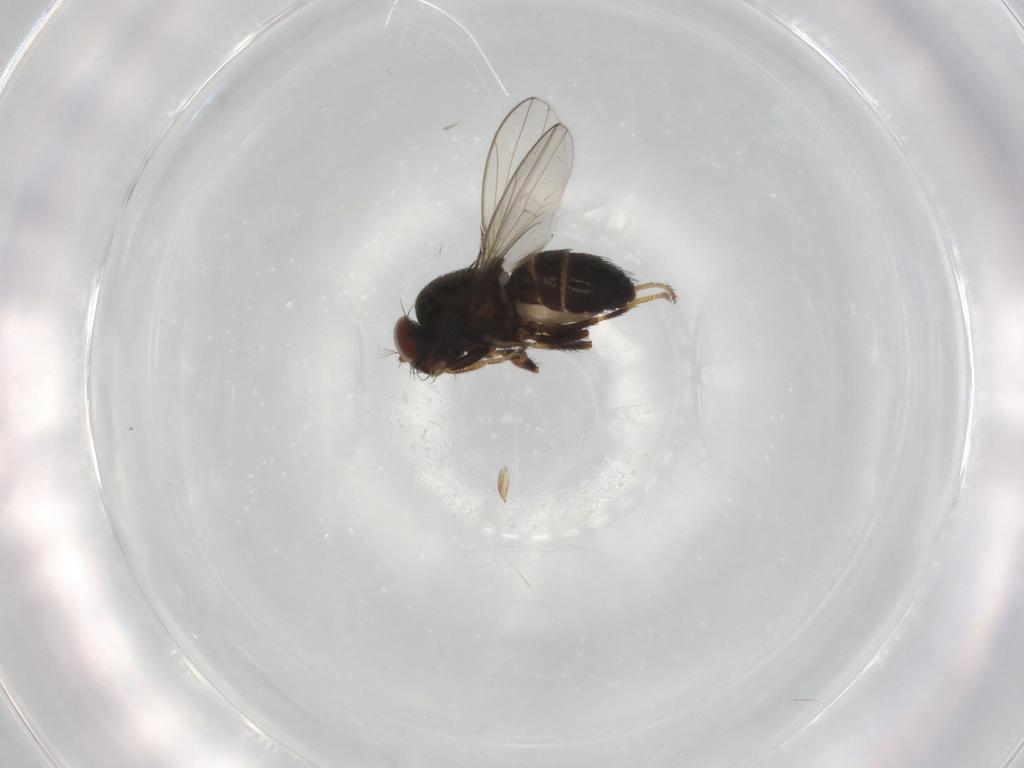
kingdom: Animalia
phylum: Arthropoda
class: Insecta
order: Diptera
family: Ephydridae
